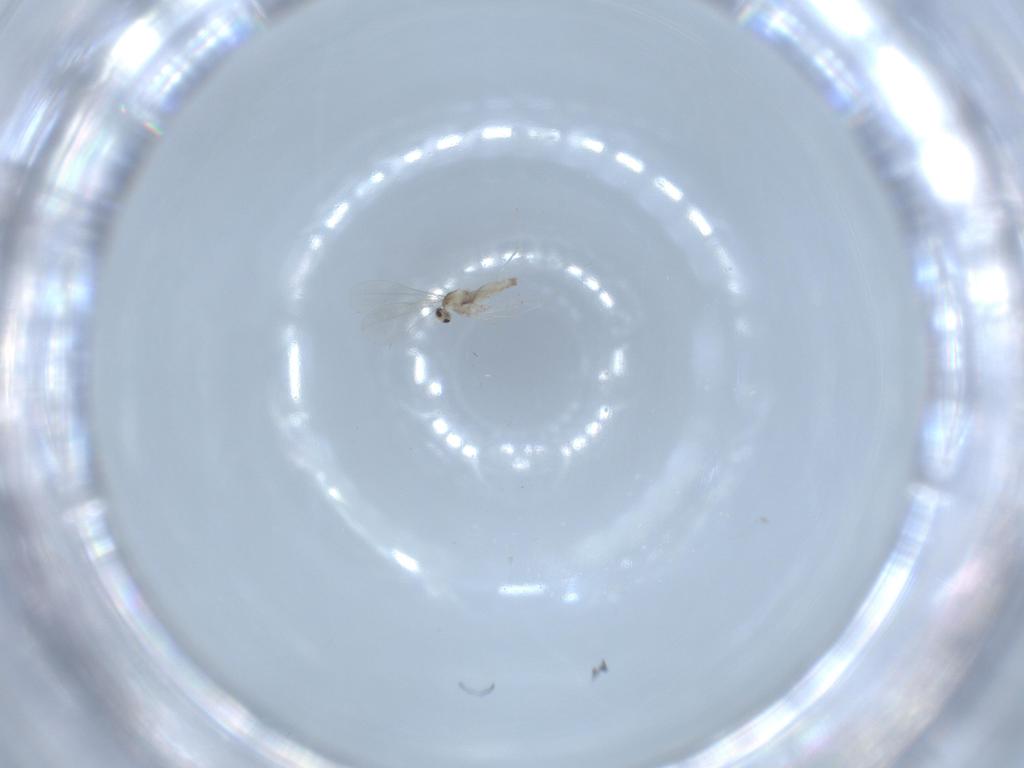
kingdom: Animalia
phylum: Arthropoda
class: Insecta
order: Diptera
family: Cecidomyiidae
